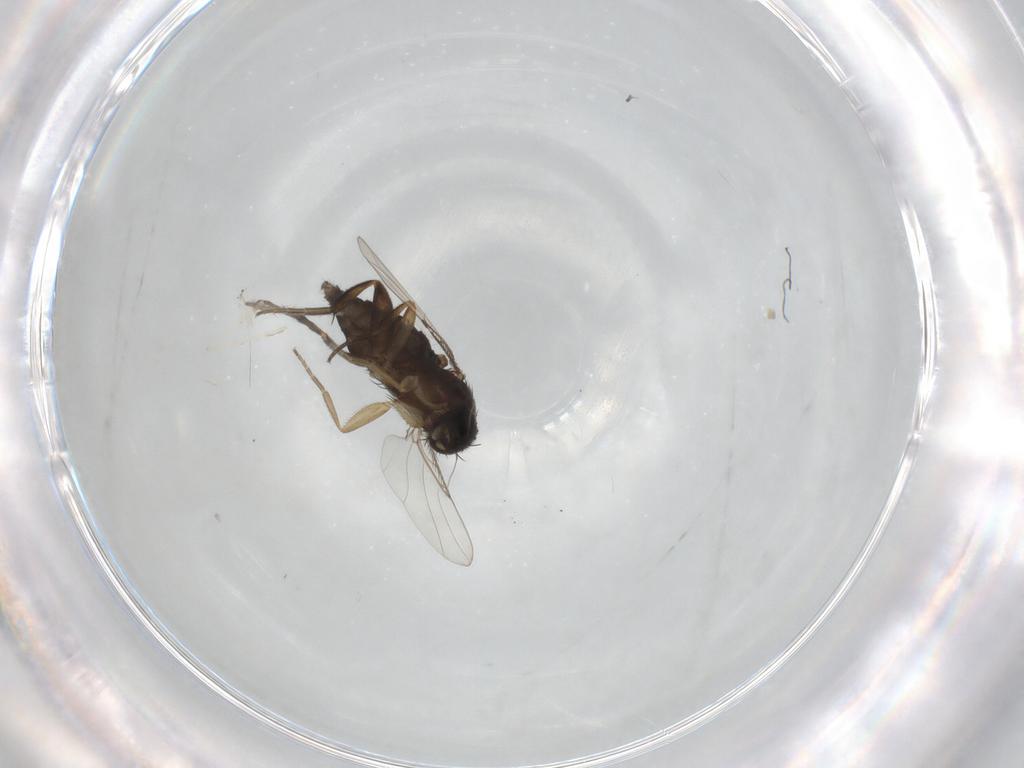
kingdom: Animalia
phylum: Arthropoda
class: Insecta
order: Diptera
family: Phoridae
